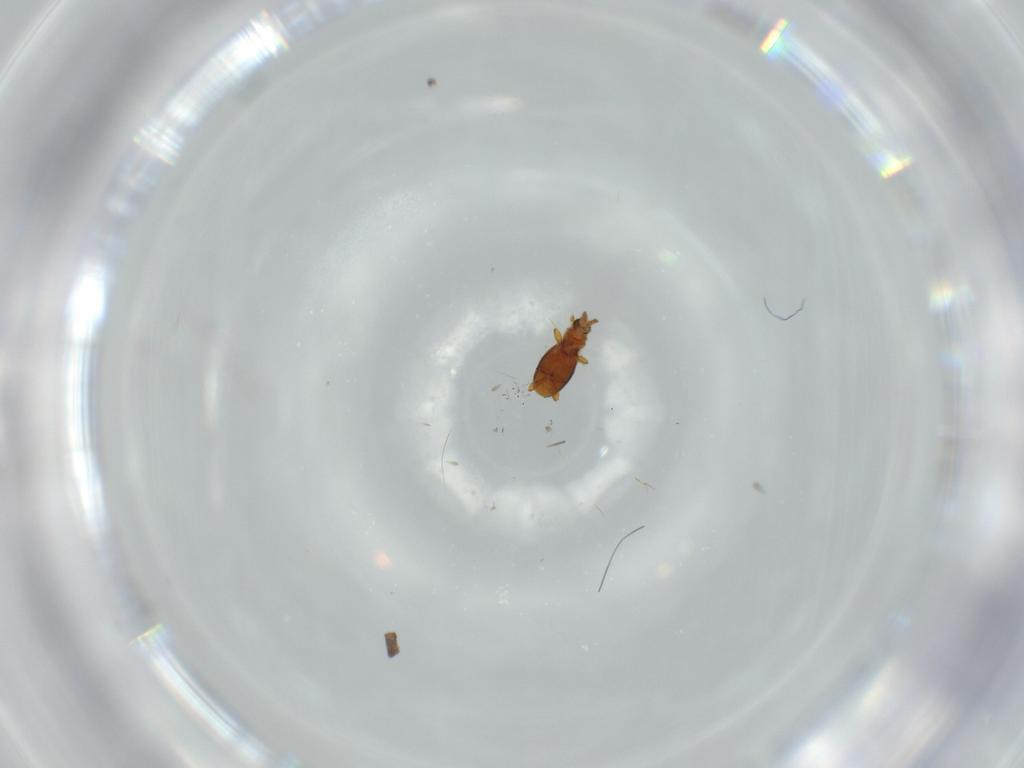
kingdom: Animalia
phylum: Arthropoda
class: Insecta
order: Coleoptera
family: Staphylinidae
